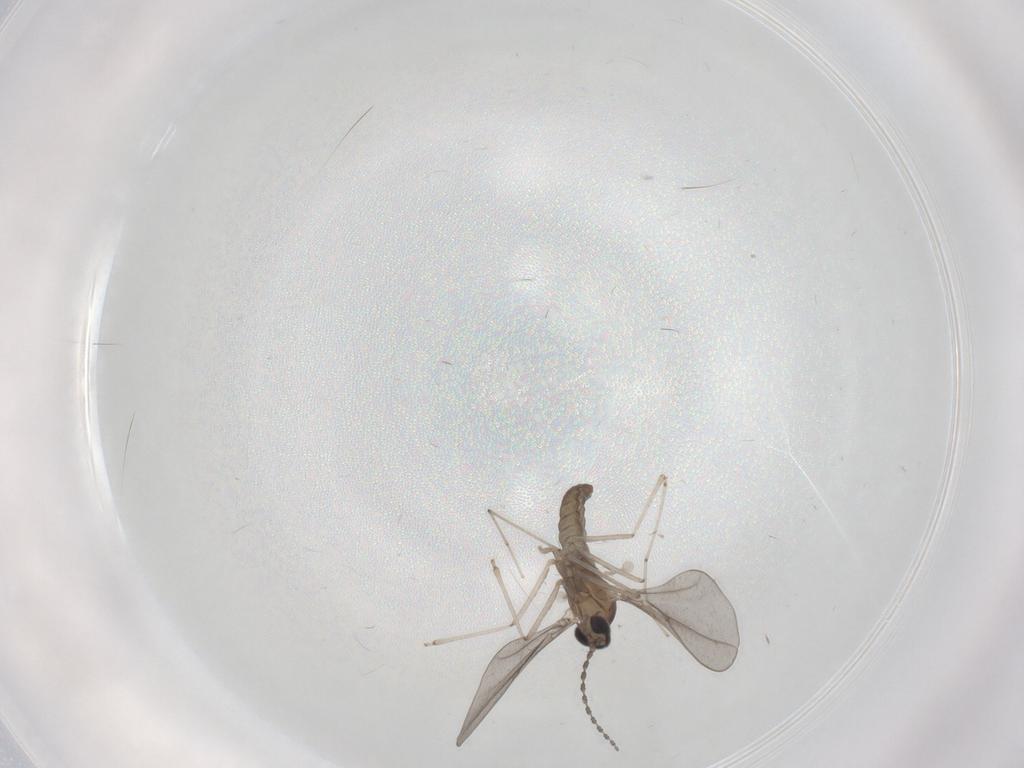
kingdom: Animalia
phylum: Arthropoda
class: Insecta
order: Diptera
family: Cecidomyiidae
